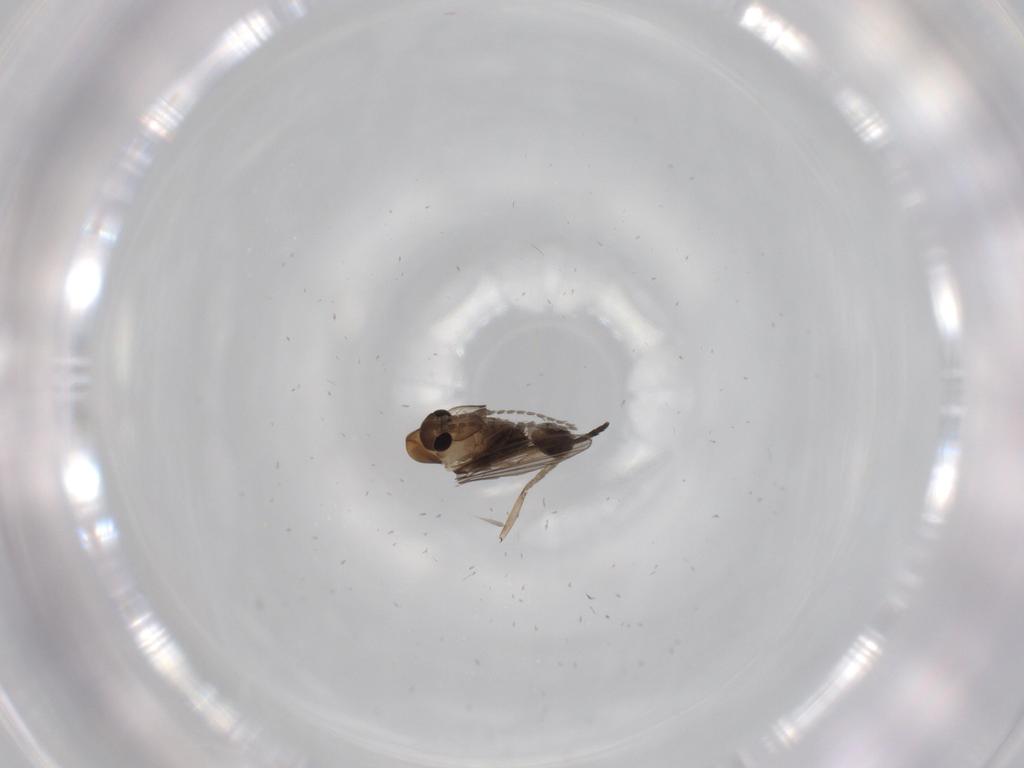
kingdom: Animalia
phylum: Arthropoda
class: Insecta
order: Diptera
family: Psychodidae
